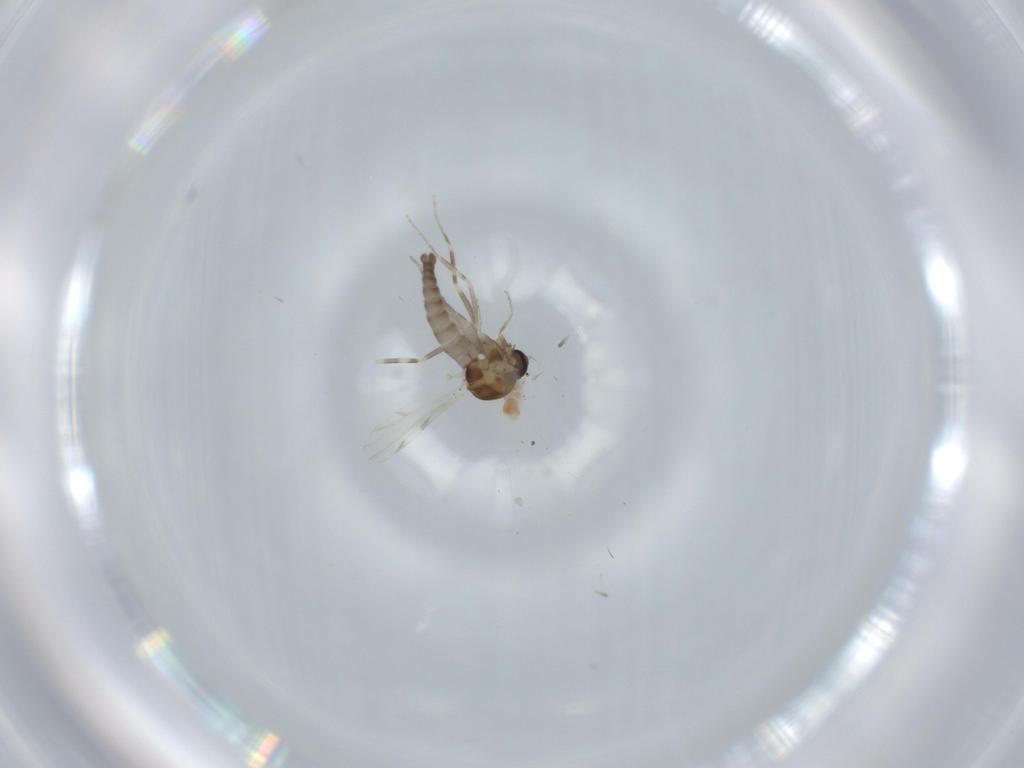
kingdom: Animalia
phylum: Arthropoda
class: Insecta
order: Diptera
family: Ceratopogonidae
